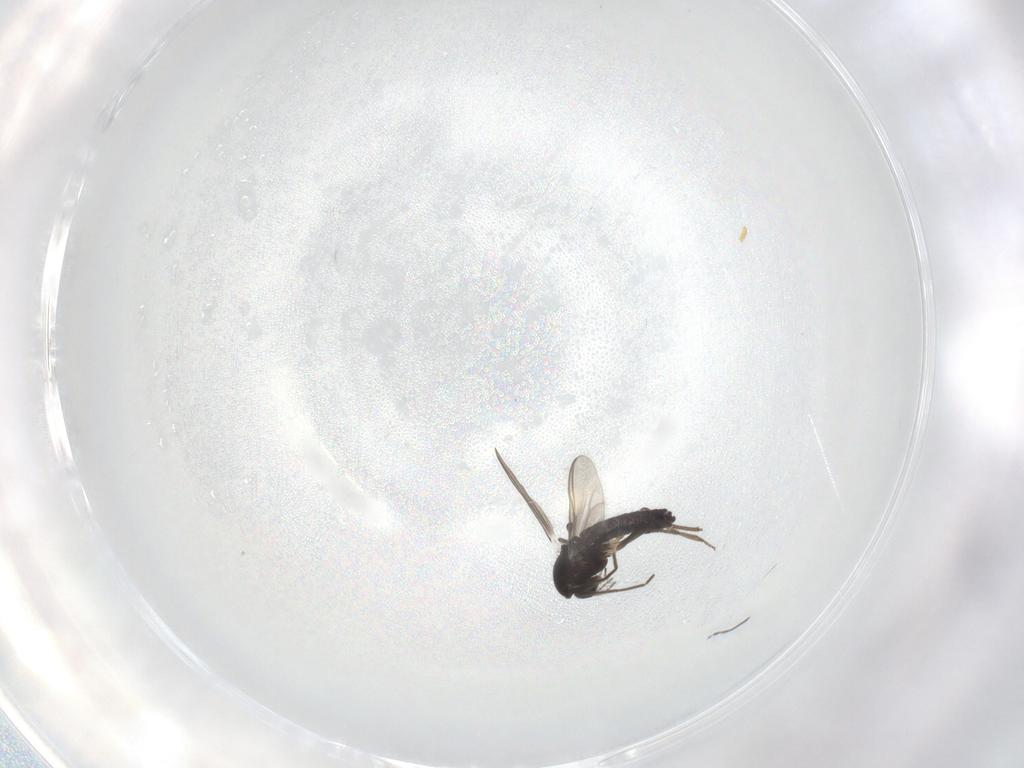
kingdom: Animalia
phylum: Arthropoda
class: Insecta
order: Diptera
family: Chironomidae
